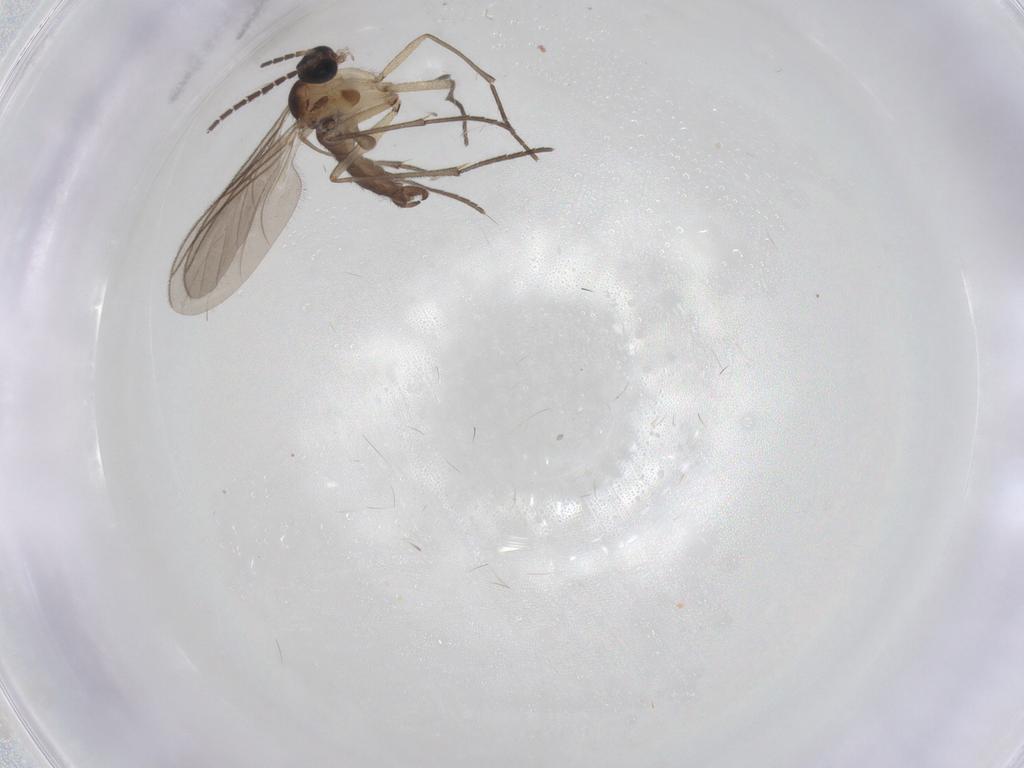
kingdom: Animalia
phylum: Arthropoda
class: Insecta
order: Diptera
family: Sciaridae
